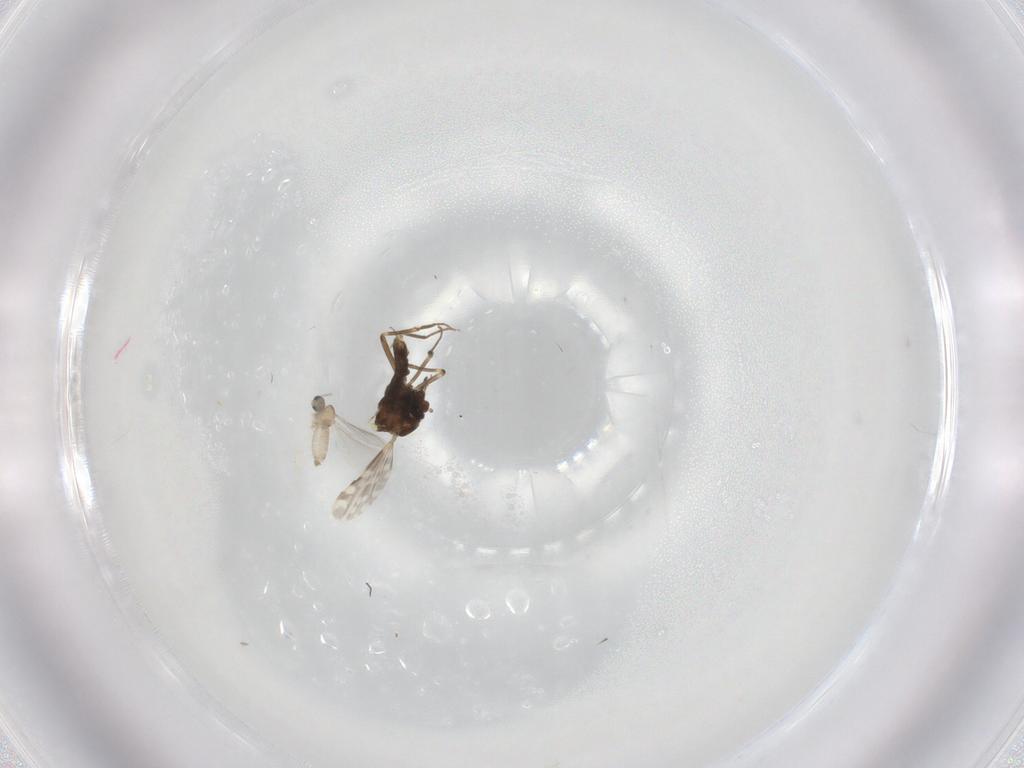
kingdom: Animalia
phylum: Arthropoda
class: Insecta
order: Diptera
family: Cecidomyiidae
